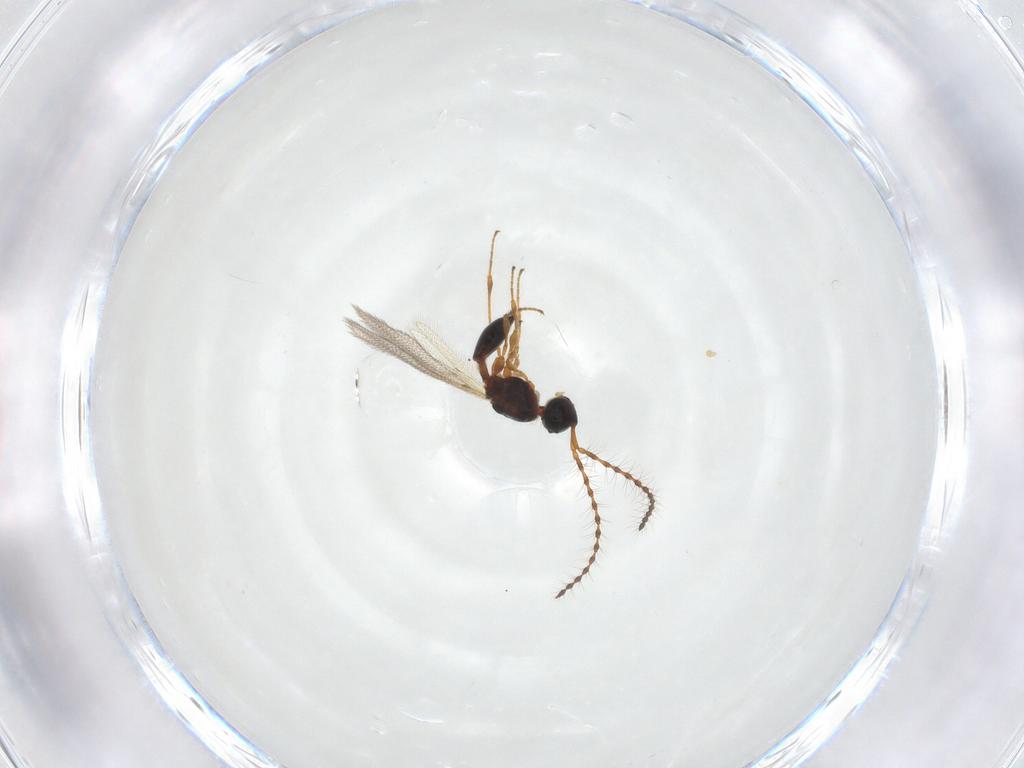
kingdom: Animalia
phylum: Arthropoda
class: Insecta
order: Hymenoptera
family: Diapriidae
